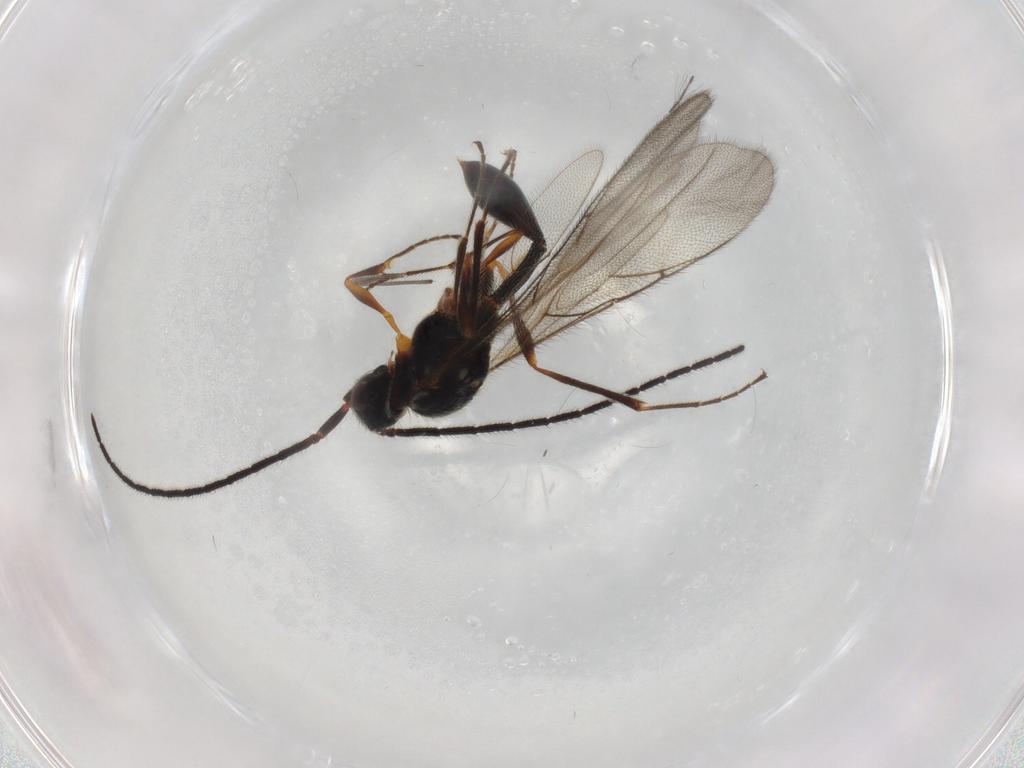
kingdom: Animalia
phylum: Arthropoda
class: Insecta
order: Hymenoptera
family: Diapriidae
